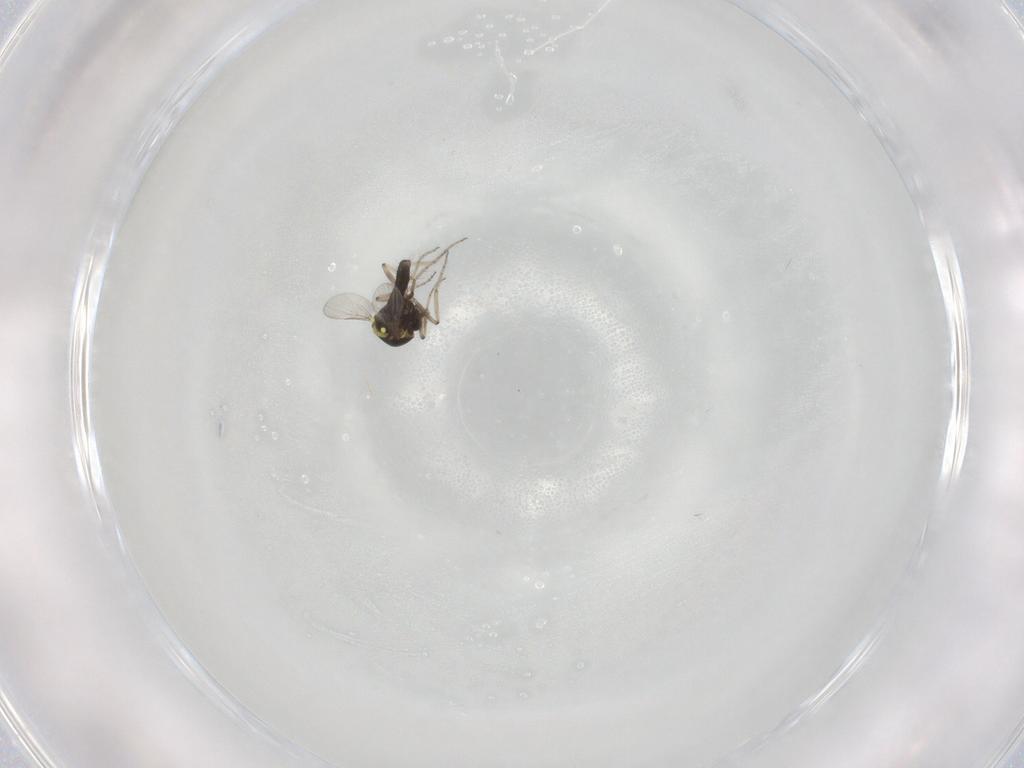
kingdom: Animalia
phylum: Arthropoda
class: Insecta
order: Diptera
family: Ceratopogonidae
